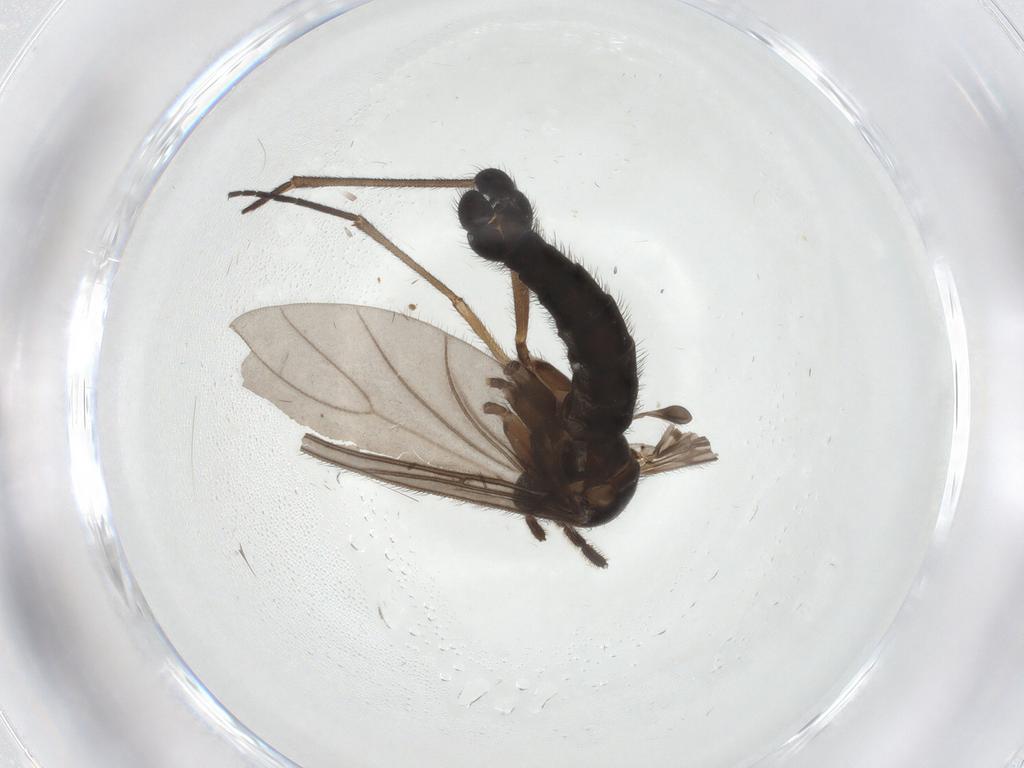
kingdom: Animalia
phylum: Arthropoda
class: Insecta
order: Diptera
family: Sciaridae
